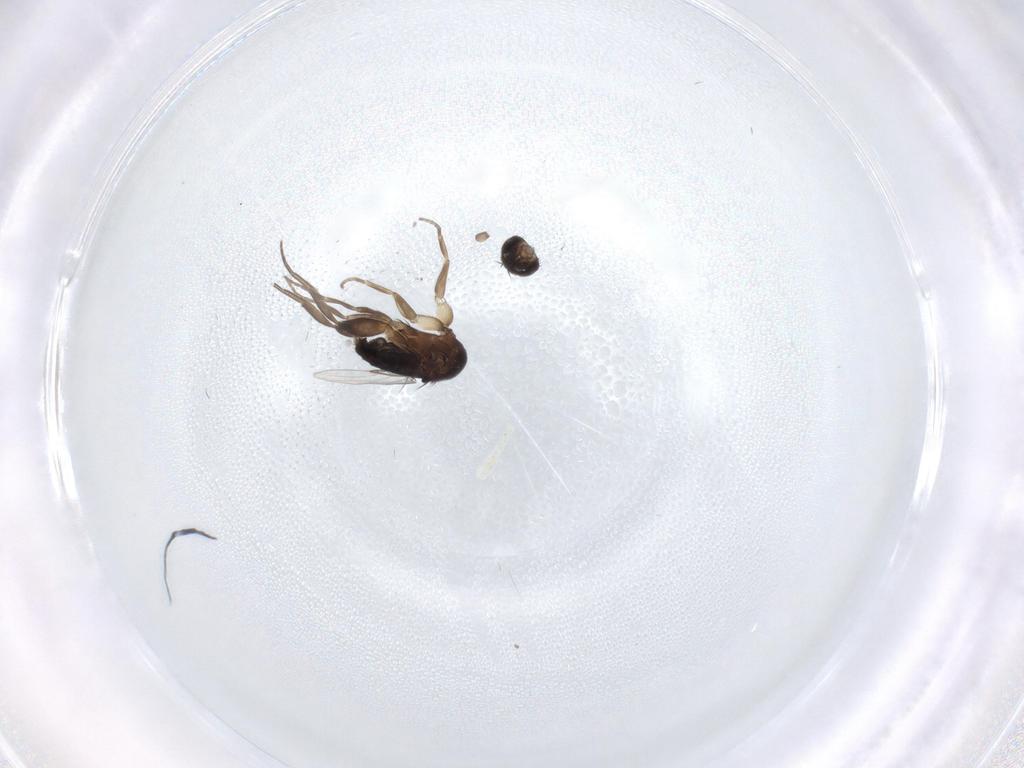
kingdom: Animalia
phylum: Arthropoda
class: Insecta
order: Diptera
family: Phoridae
